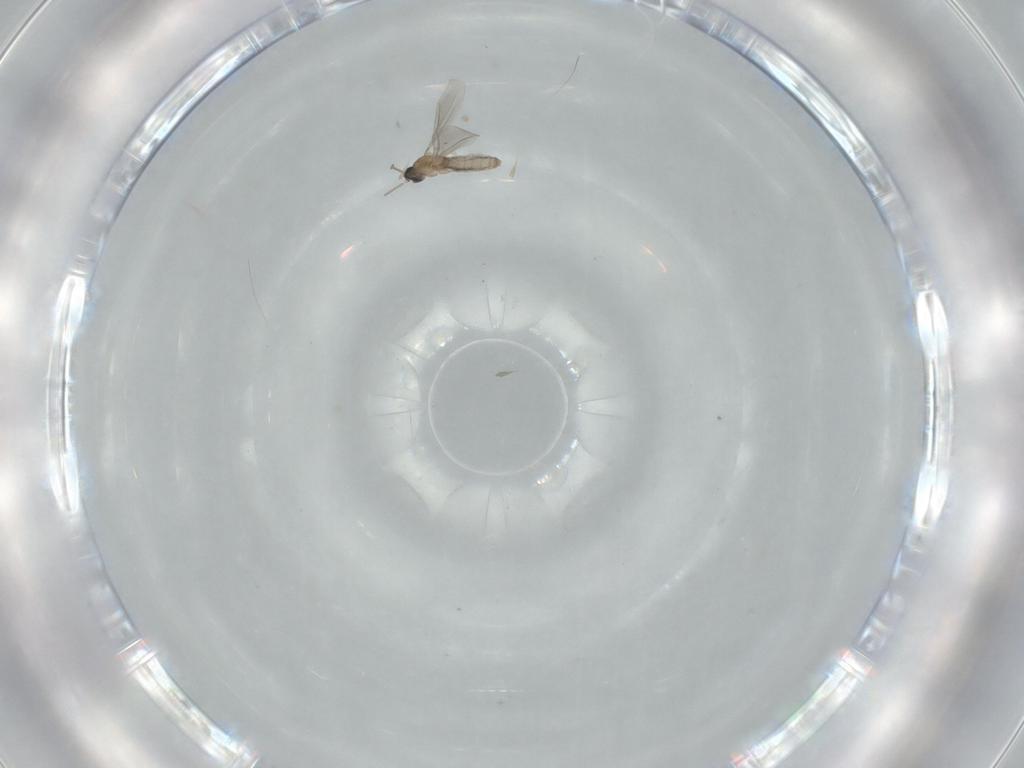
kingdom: Animalia
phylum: Arthropoda
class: Insecta
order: Diptera
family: Cecidomyiidae
